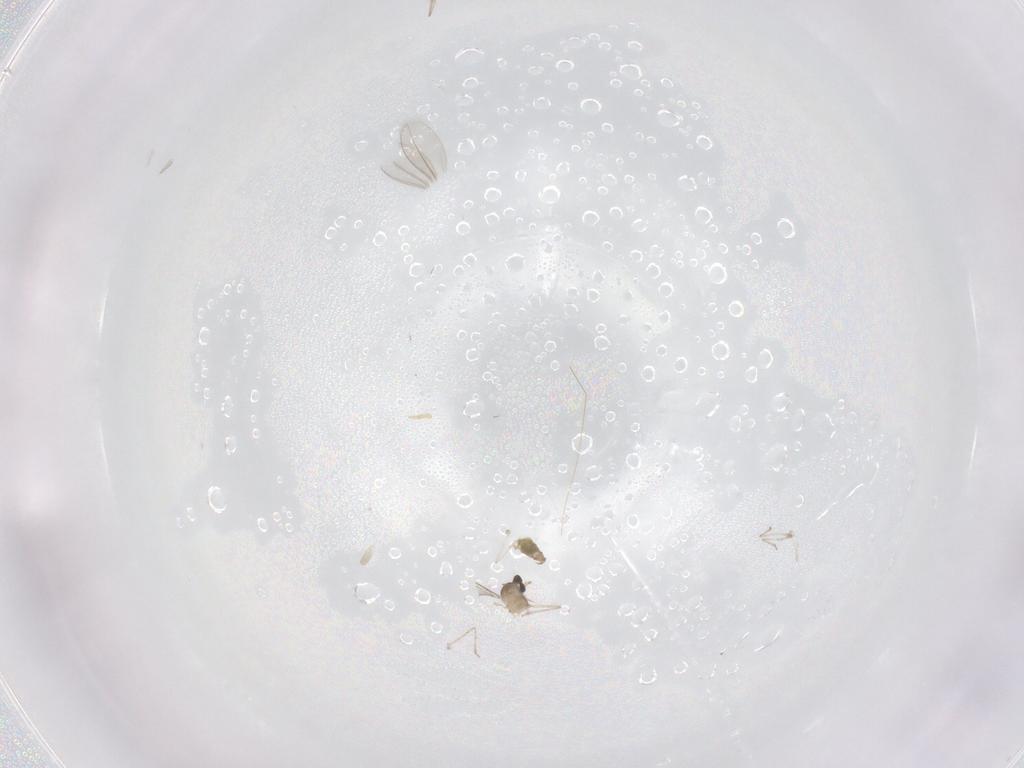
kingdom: Animalia
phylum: Arthropoda
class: Insecta
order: Diptera
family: Cecidomyiidae
